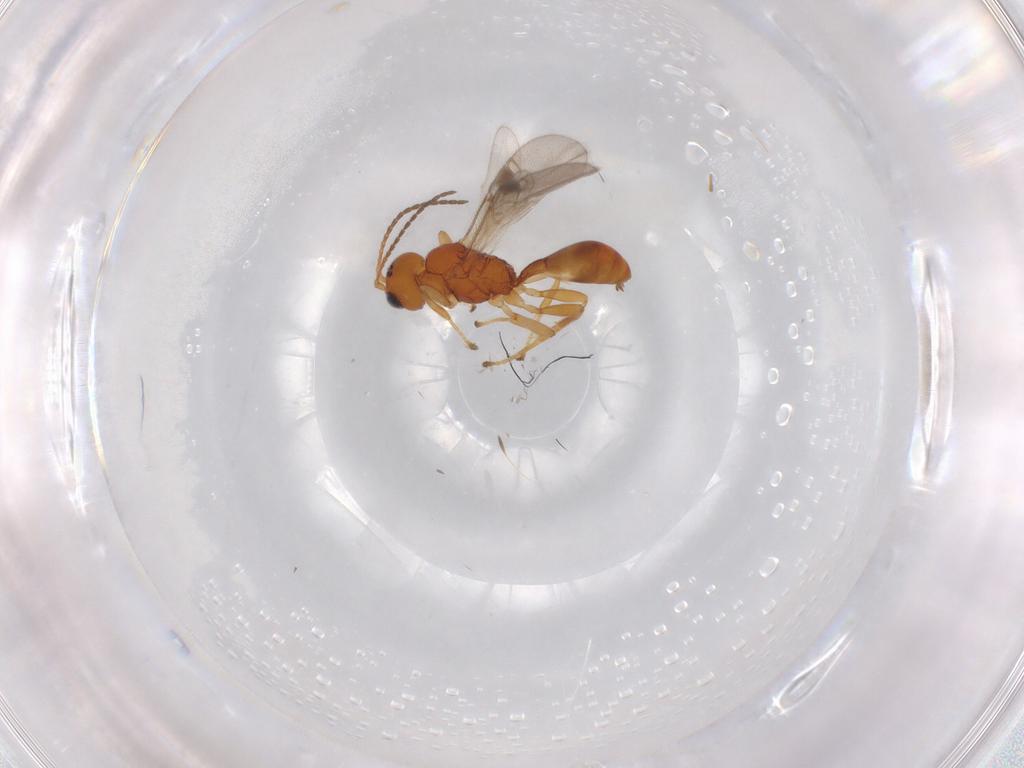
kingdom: Animalia
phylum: Arthropoda
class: Insecta
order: Hymenoptera
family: Braconidae
